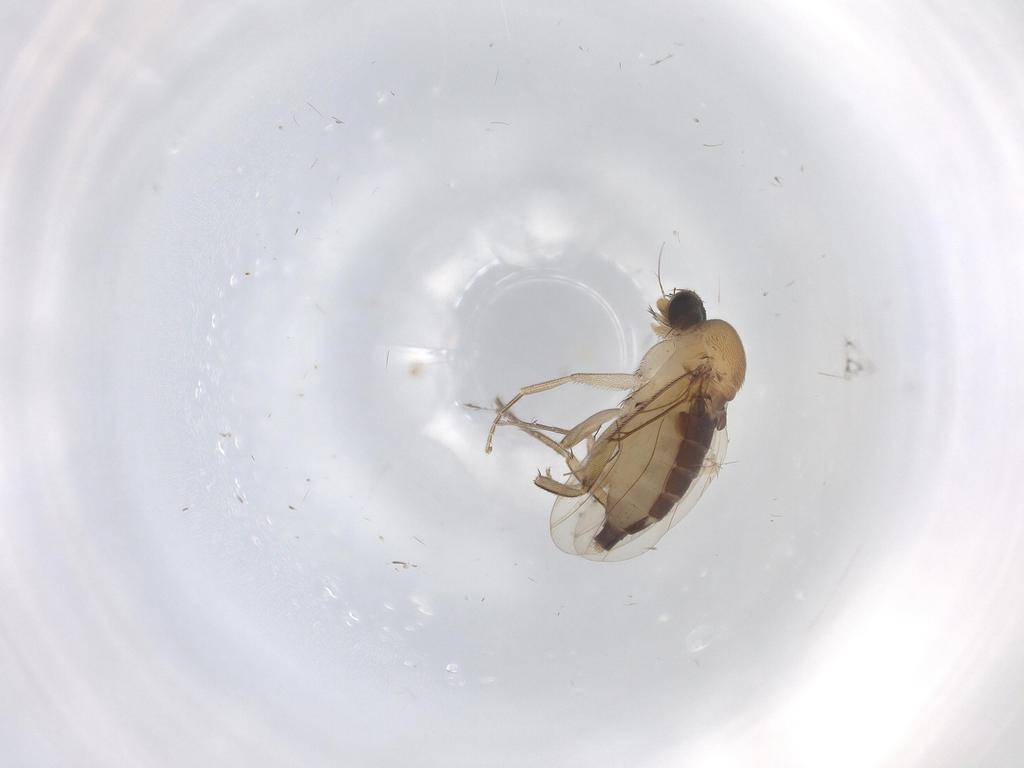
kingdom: Animalia
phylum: Arthropoda
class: Insecta
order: Diptera
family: Phoridae
